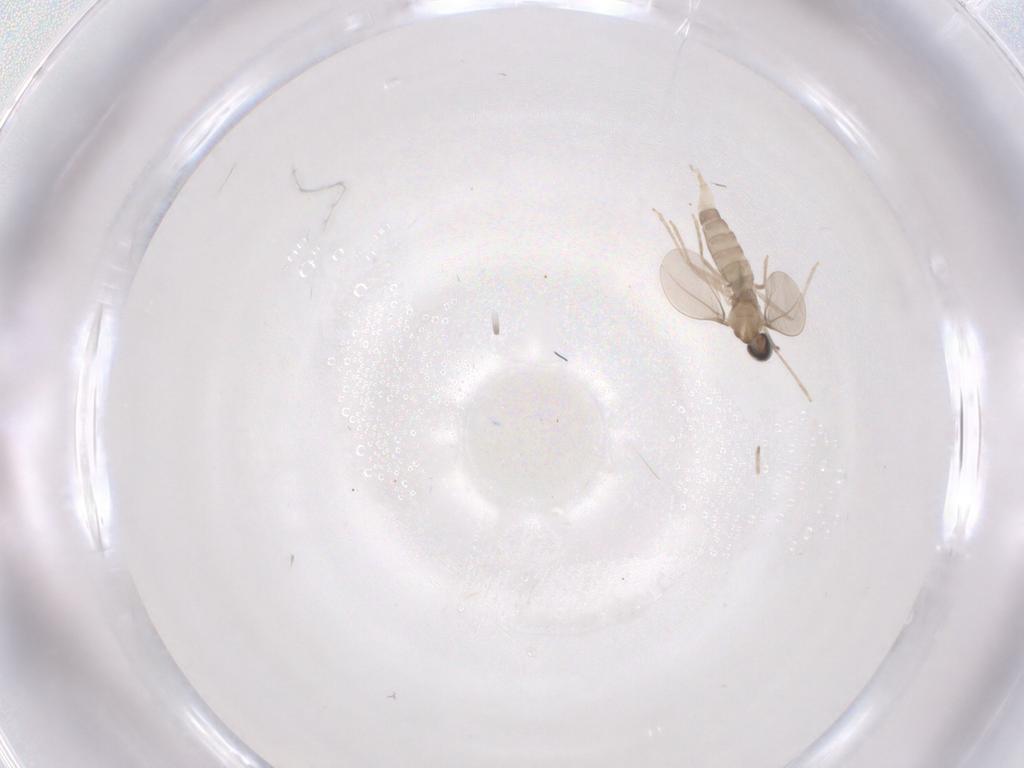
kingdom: Animalia
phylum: Arthropoda
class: Insecta
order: Diptera
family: Cecidomyiidae
